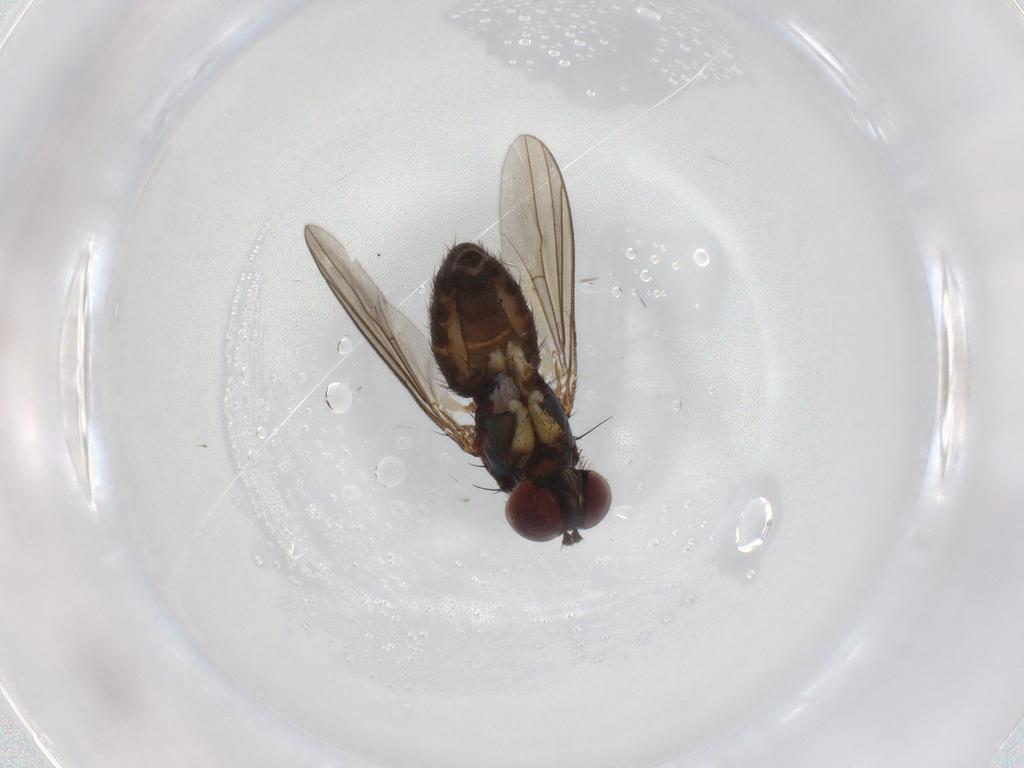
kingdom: Animalia
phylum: Arthropoda
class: Insecta
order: Diptera
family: Dolichopodidae
